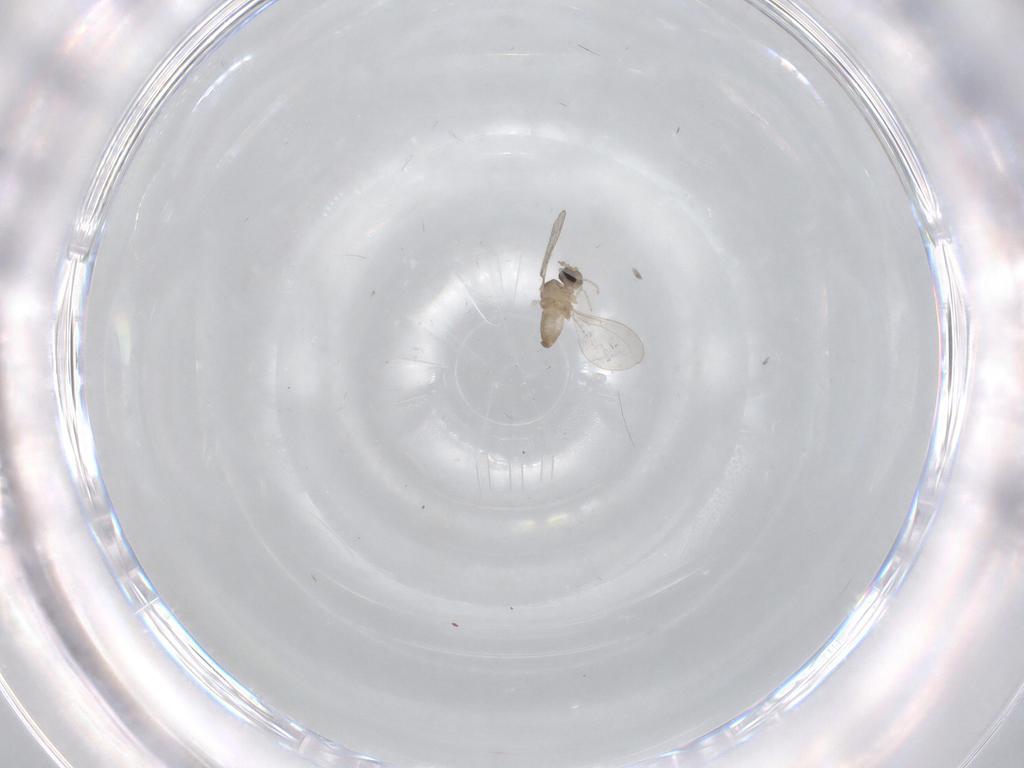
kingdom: Animalia
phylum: Arthropoda
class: Insecta
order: Diptera
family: Cecidomyiidae
